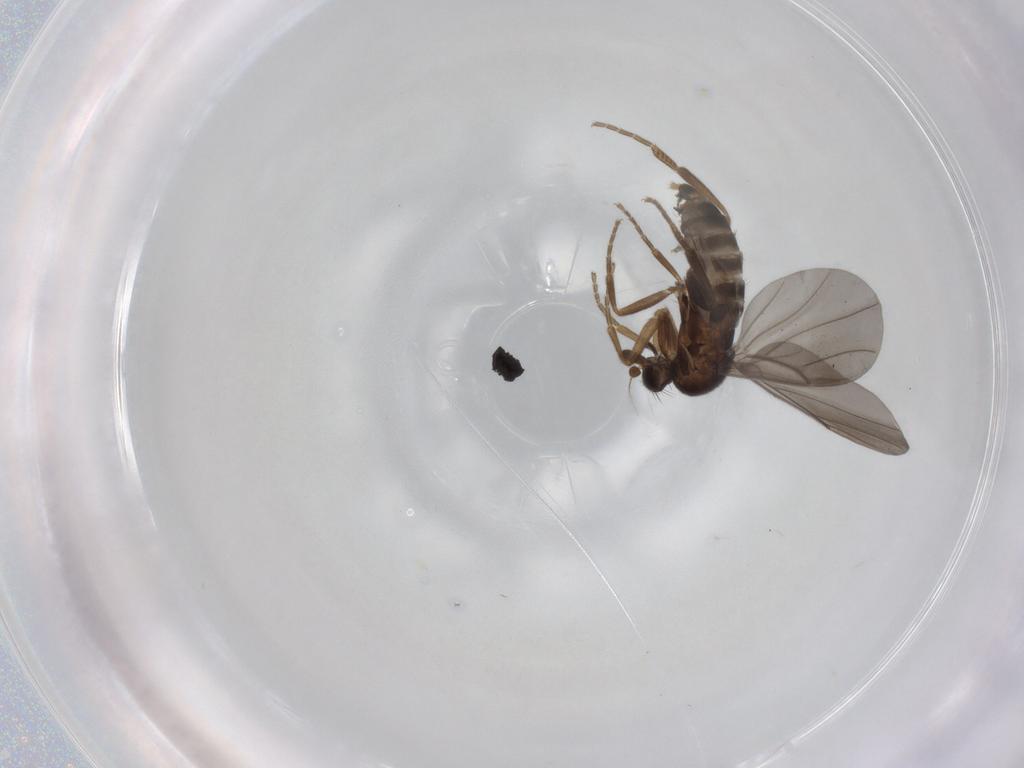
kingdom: Animalia
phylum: Arthropoda
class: Insecta
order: Diptera
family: Phoridae
